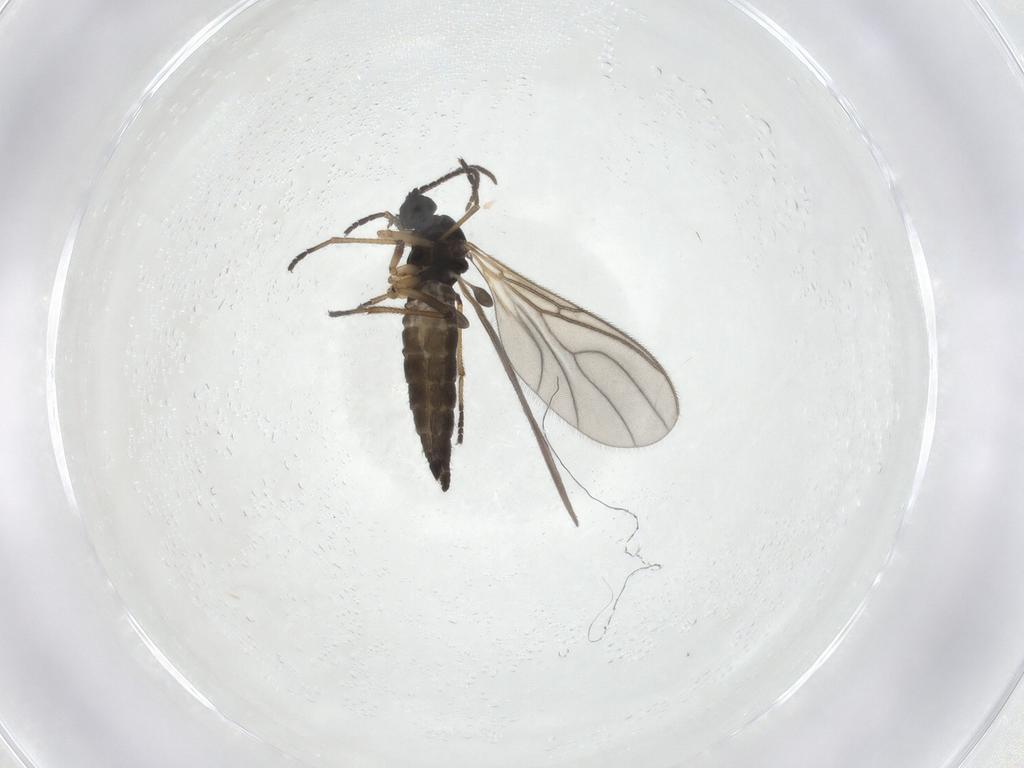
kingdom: Animalia
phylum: Arthropoda
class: Insecta
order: Diptera
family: Sciaridae
